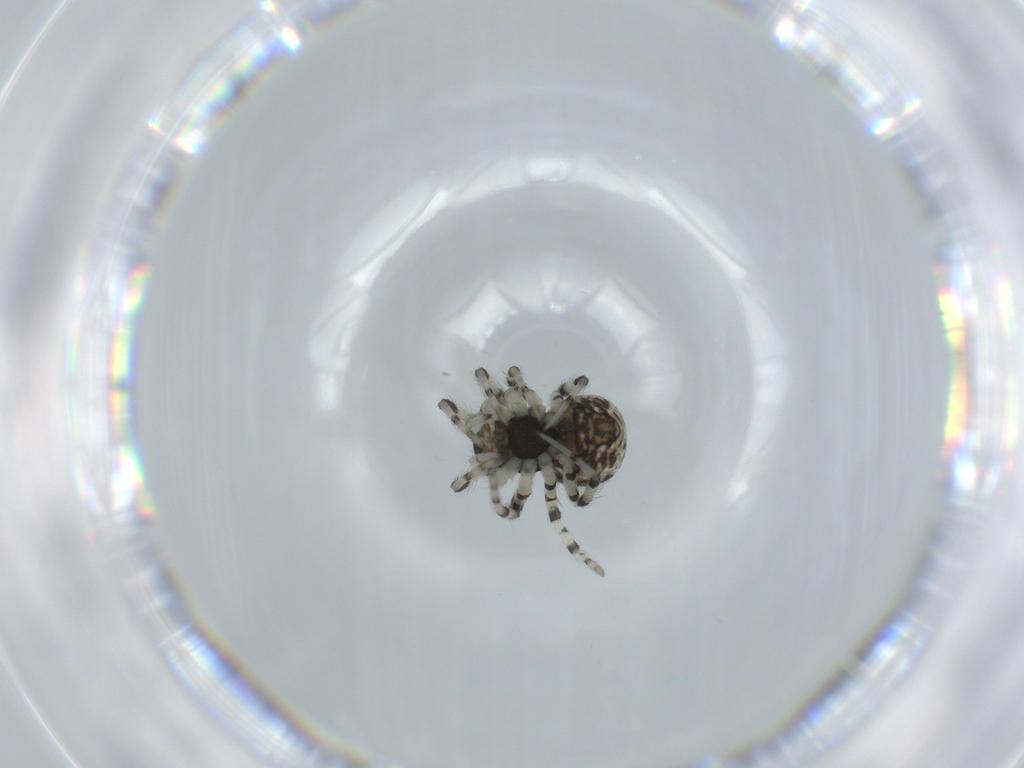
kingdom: Animalia
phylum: Arthropoda
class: Arachnida
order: Araneae
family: Mysmenidae
